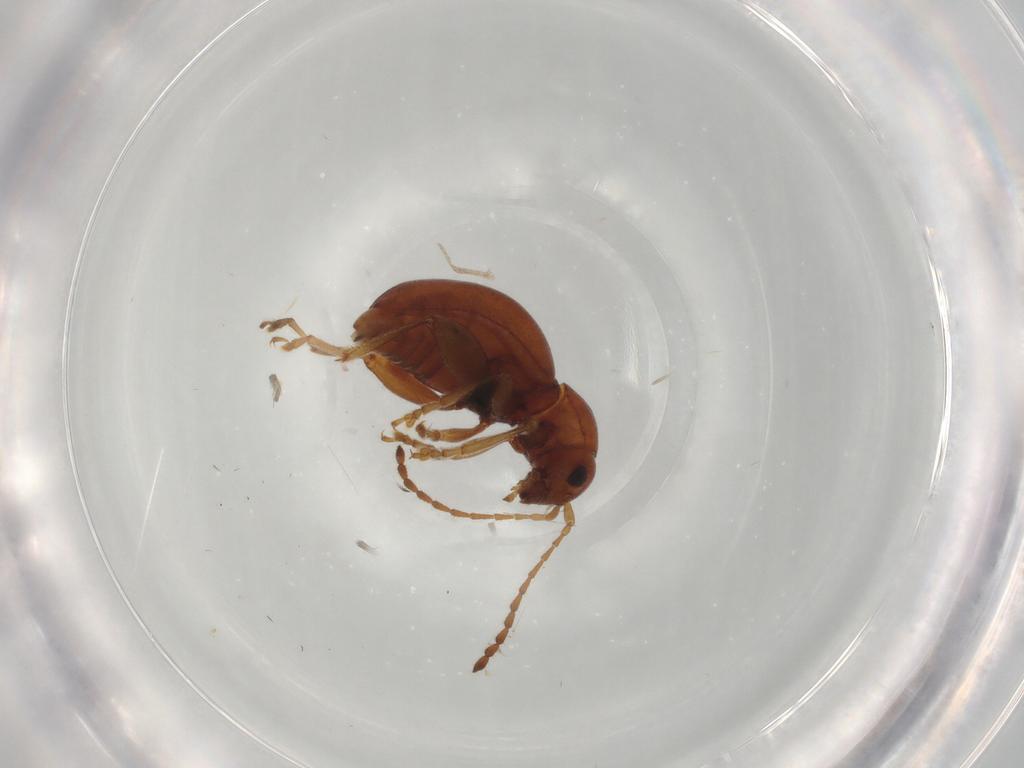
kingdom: Animalia
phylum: Arthropoda
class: Insecta
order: Coleoptera
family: Chrysomelidae
